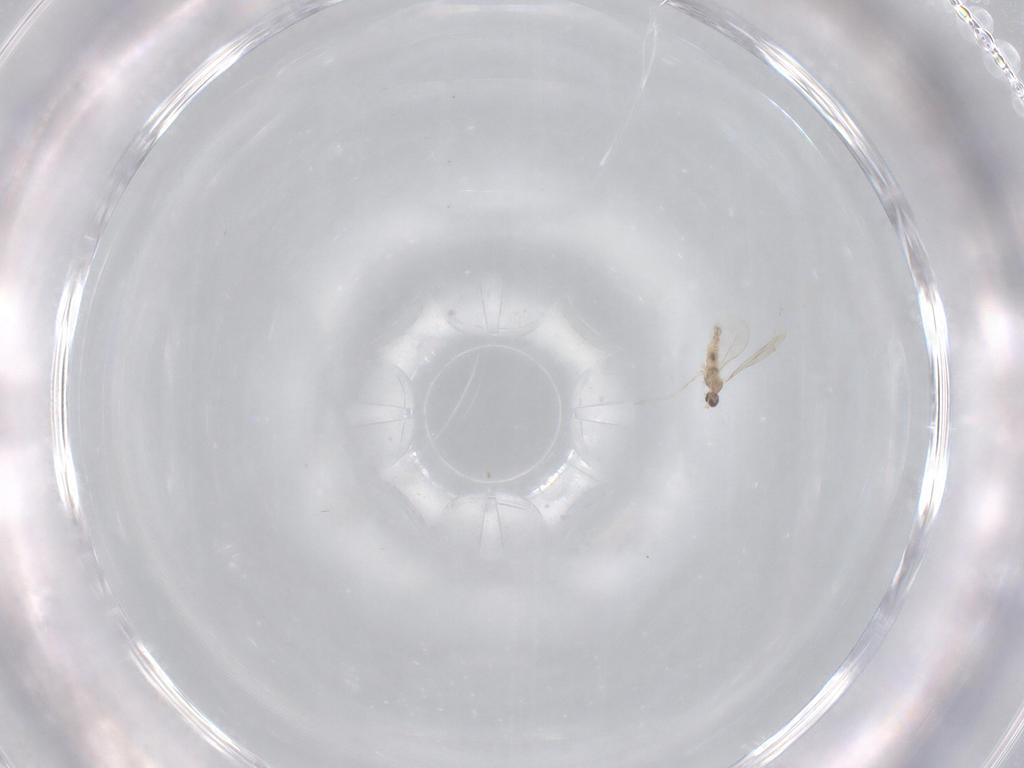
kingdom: Animalia
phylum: Arthropoda
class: Insecta
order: Diptera
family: Cecidomyiidae
